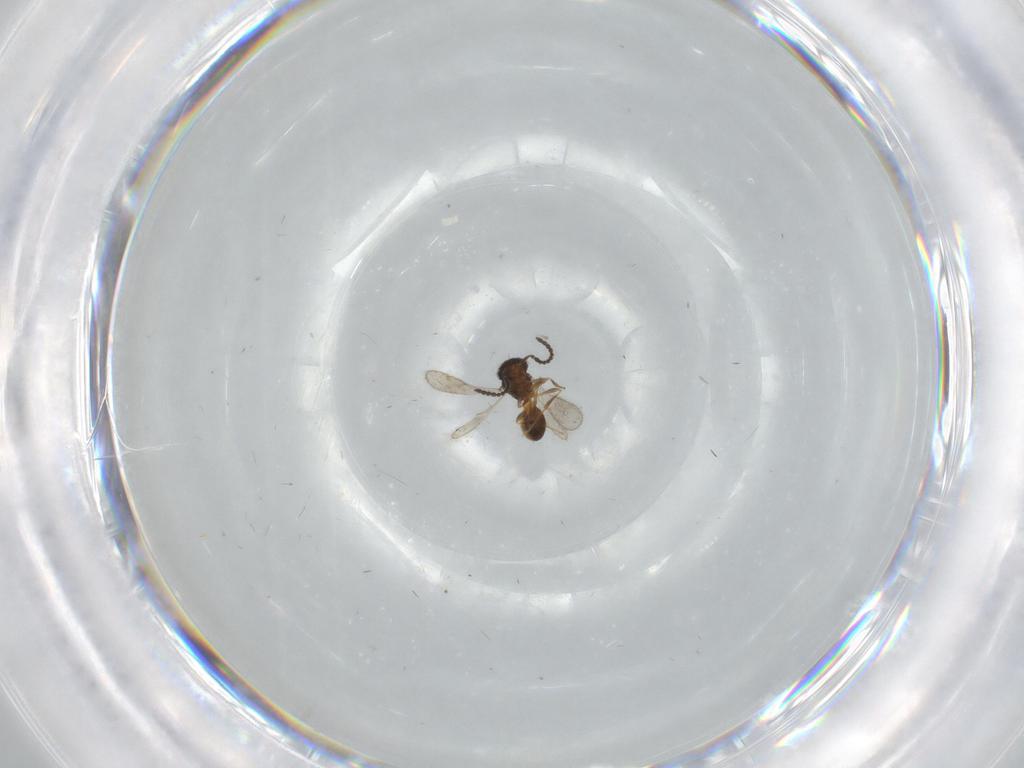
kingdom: Animalia
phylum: Arthropoda
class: Insecta
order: Hymenoptera
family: Scelionidae
